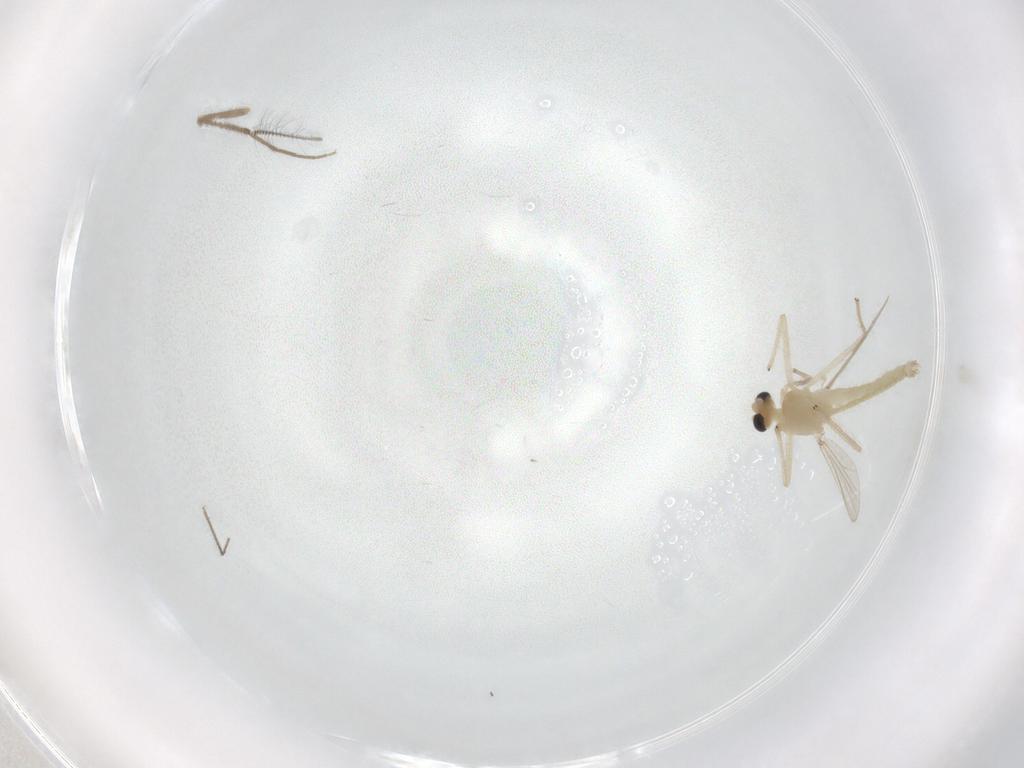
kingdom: Animalia
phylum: Arthropoda
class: Insecta
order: Diptera
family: Chironomidae
